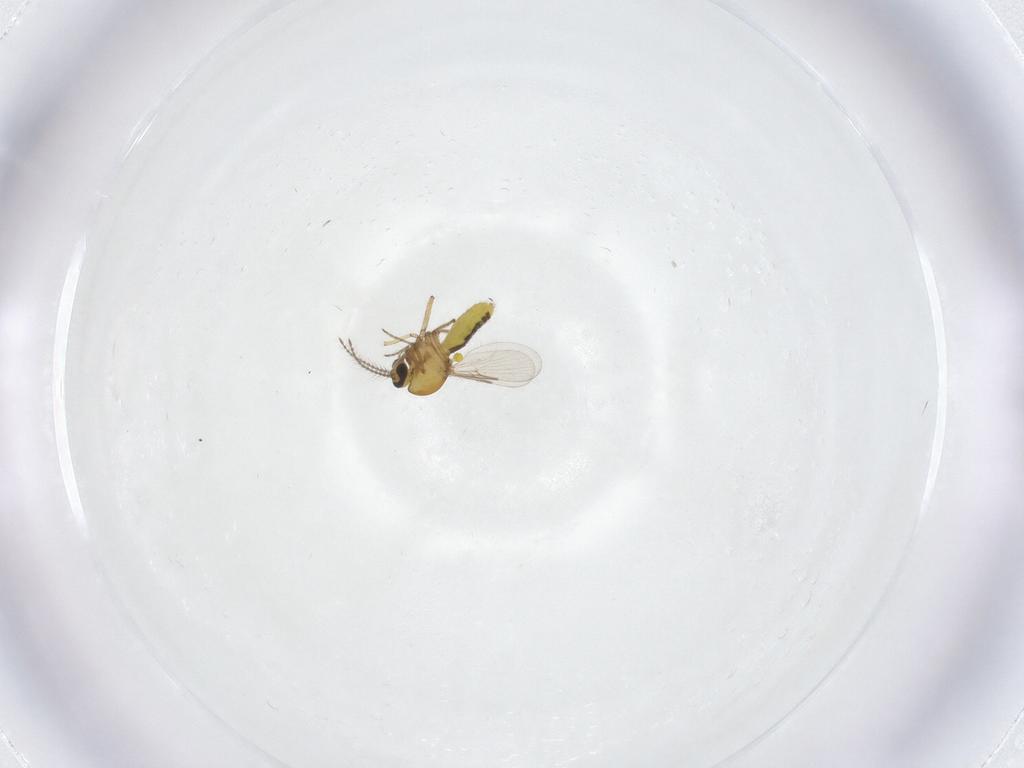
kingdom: Animalia
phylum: Arthropoda
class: Insecta
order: Diptera
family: Ceratopogonidae
